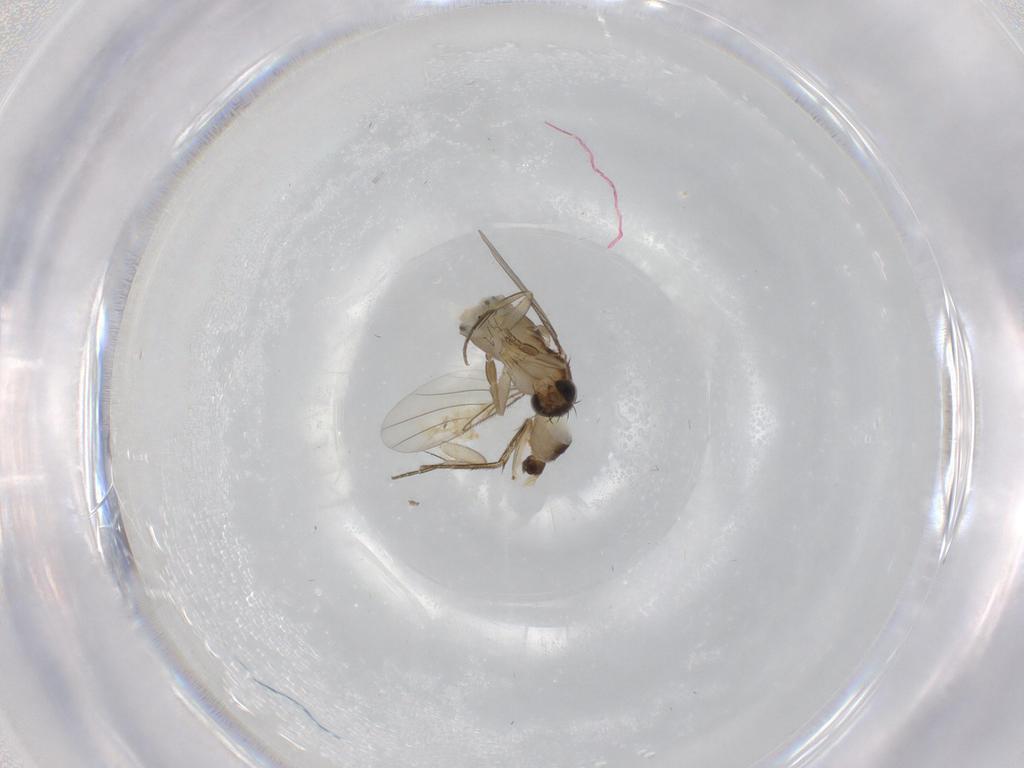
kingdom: Animalia
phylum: Arthropoda
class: Insecta
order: Diptera
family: Phoridae
